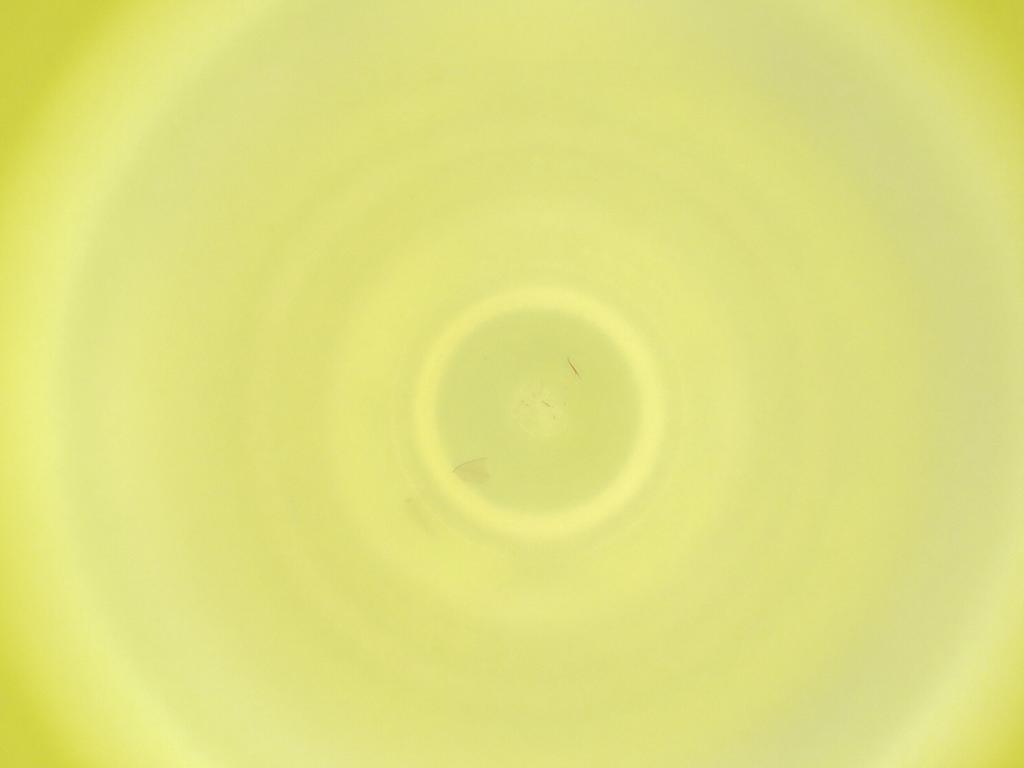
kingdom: Animalia
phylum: Arthropoda
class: Insecta
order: Diptera
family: Cecidomyiidae
